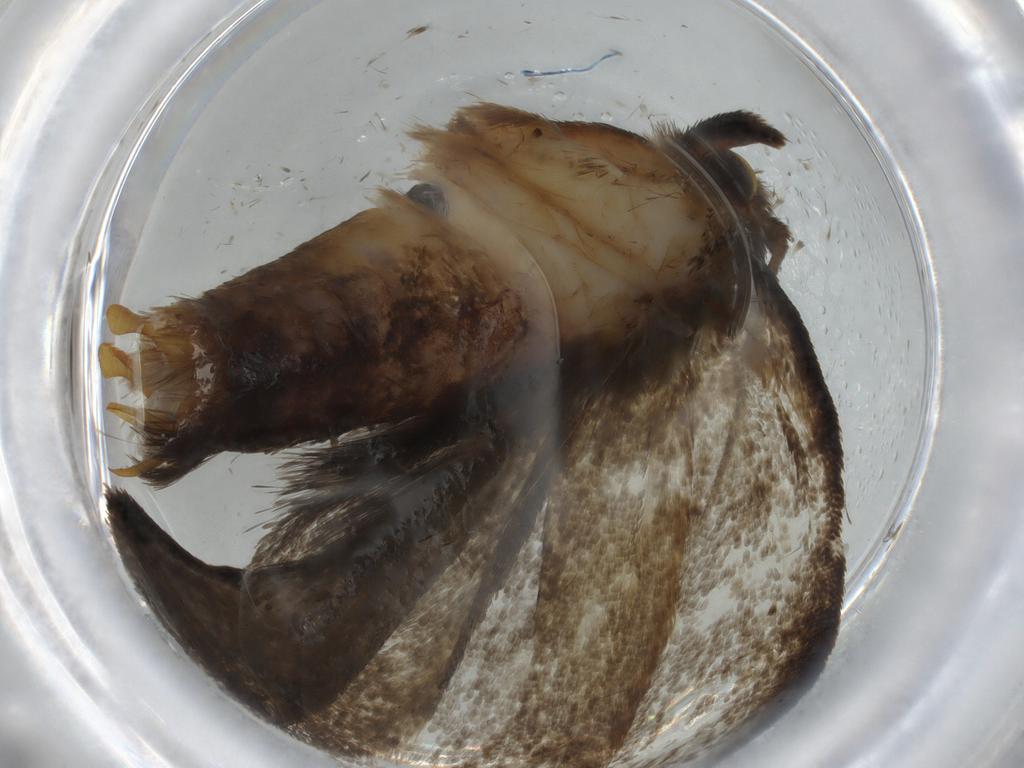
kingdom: Animalia
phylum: Arthropoda
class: Insecta
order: Lepidoptera
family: Tineidae
